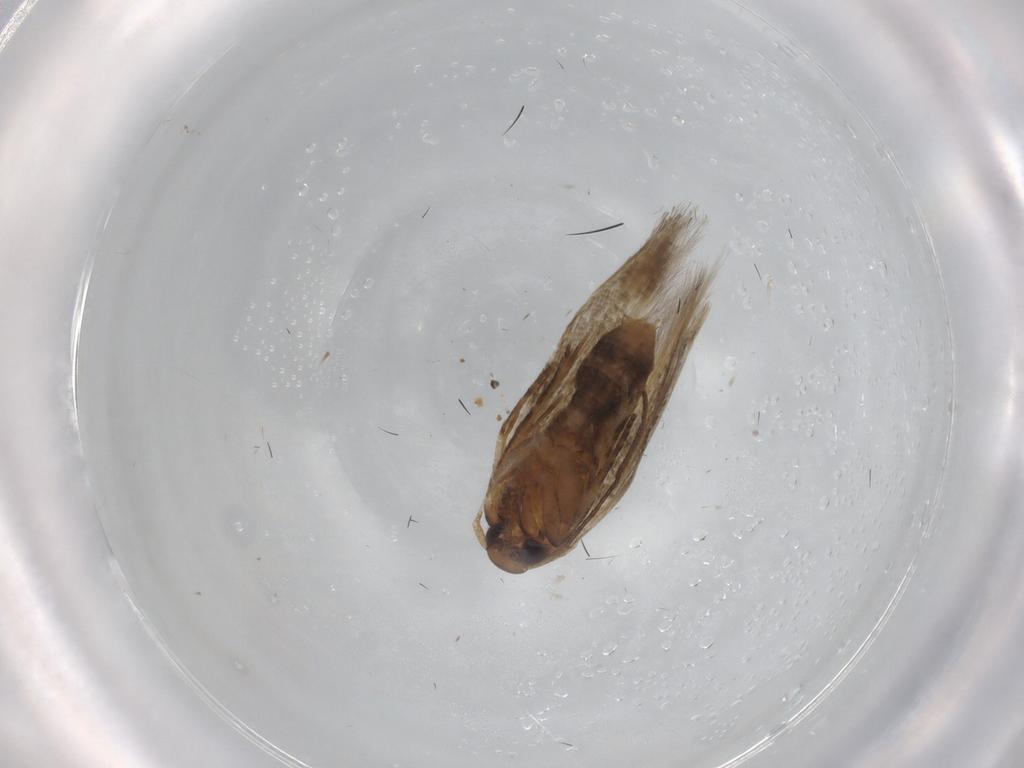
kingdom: Animalia
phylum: Arthropoda
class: Insecta
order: Lepidoptera
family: Cosmopterigidae
